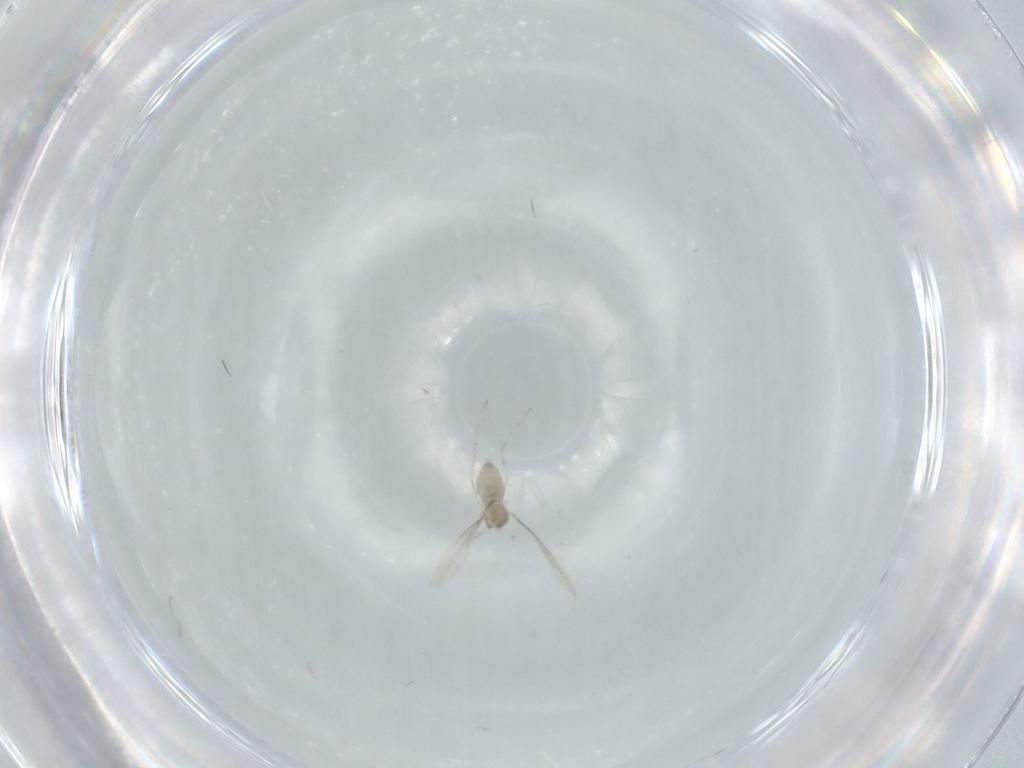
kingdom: Animalia
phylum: Arthropoda
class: Insecta
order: Diptera
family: Cecidomyiidae
